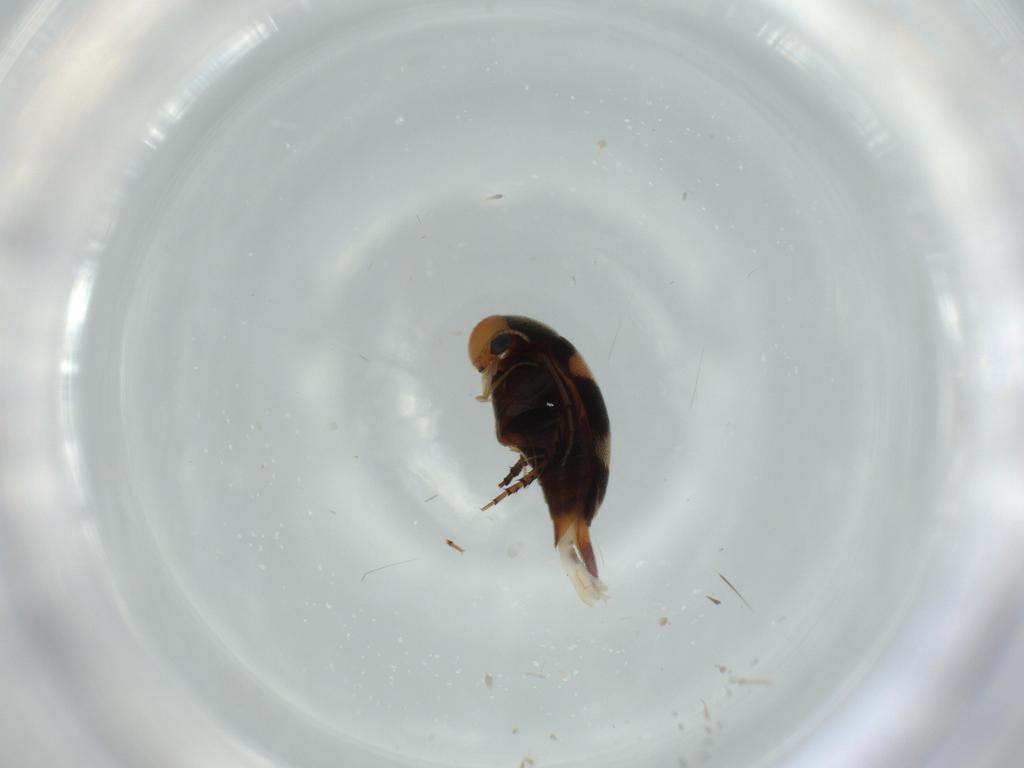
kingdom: Animalia
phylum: Arthropoda
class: Insecta
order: Coleoptera
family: Mordellidae
